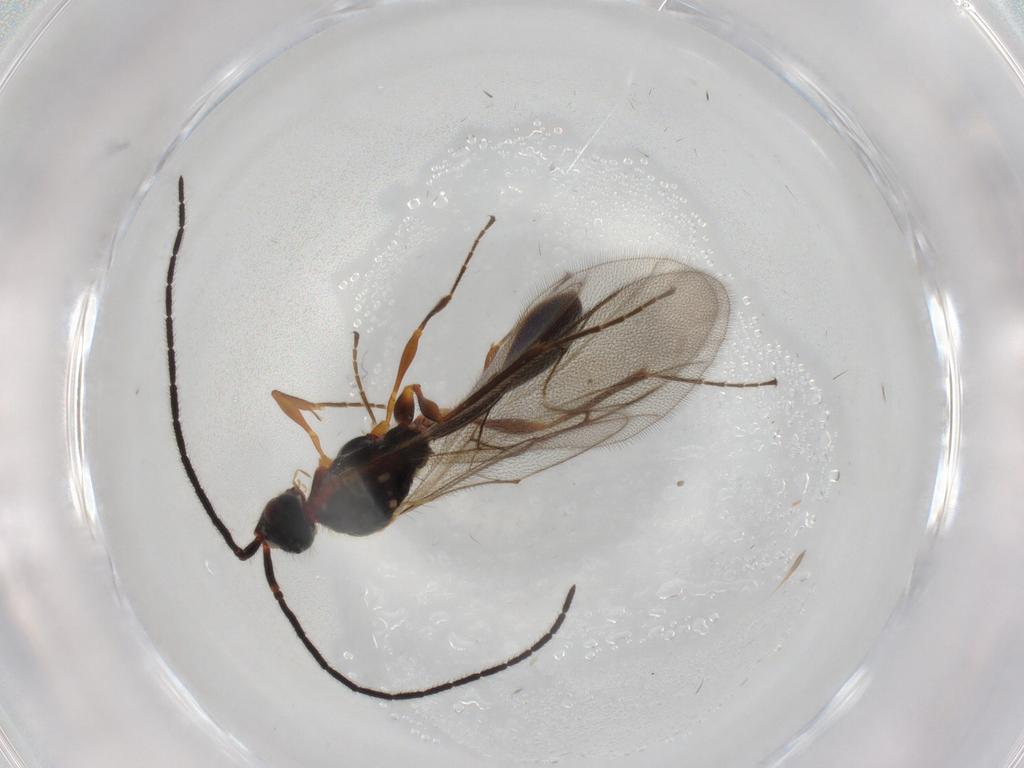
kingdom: Animalia
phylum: Arthropoda
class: Insecta
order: Hymenoptera
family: Diapriidae
